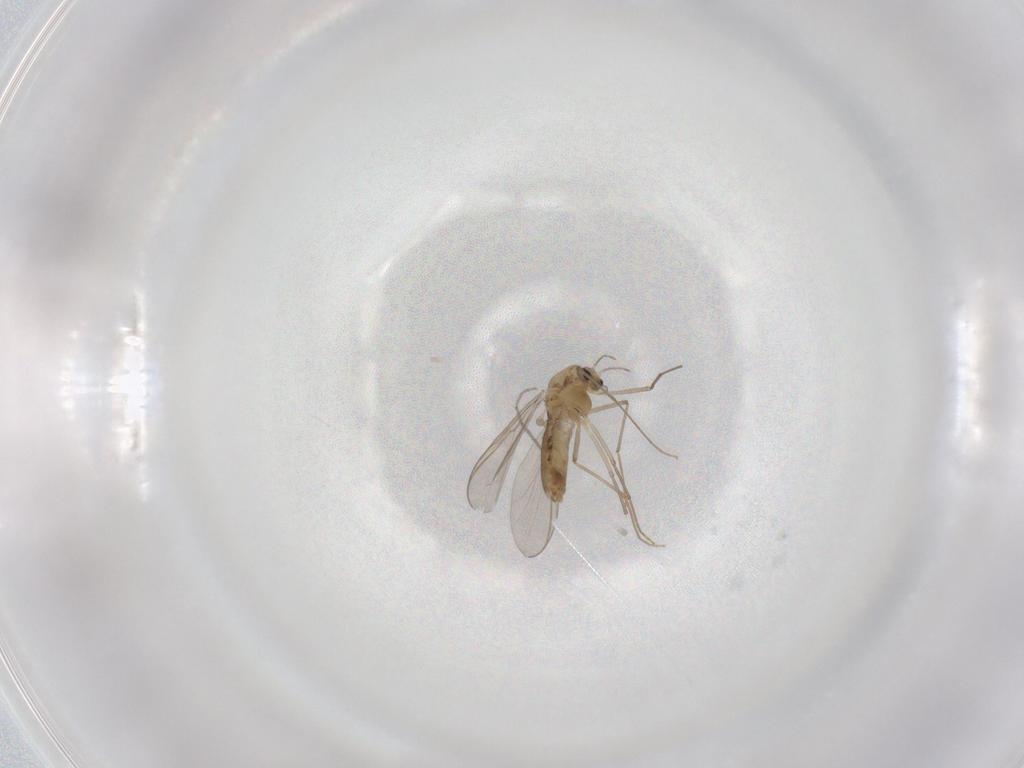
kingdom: Animalia
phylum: Arthropoda
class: Insecta
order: Diptera
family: Chironomidae
